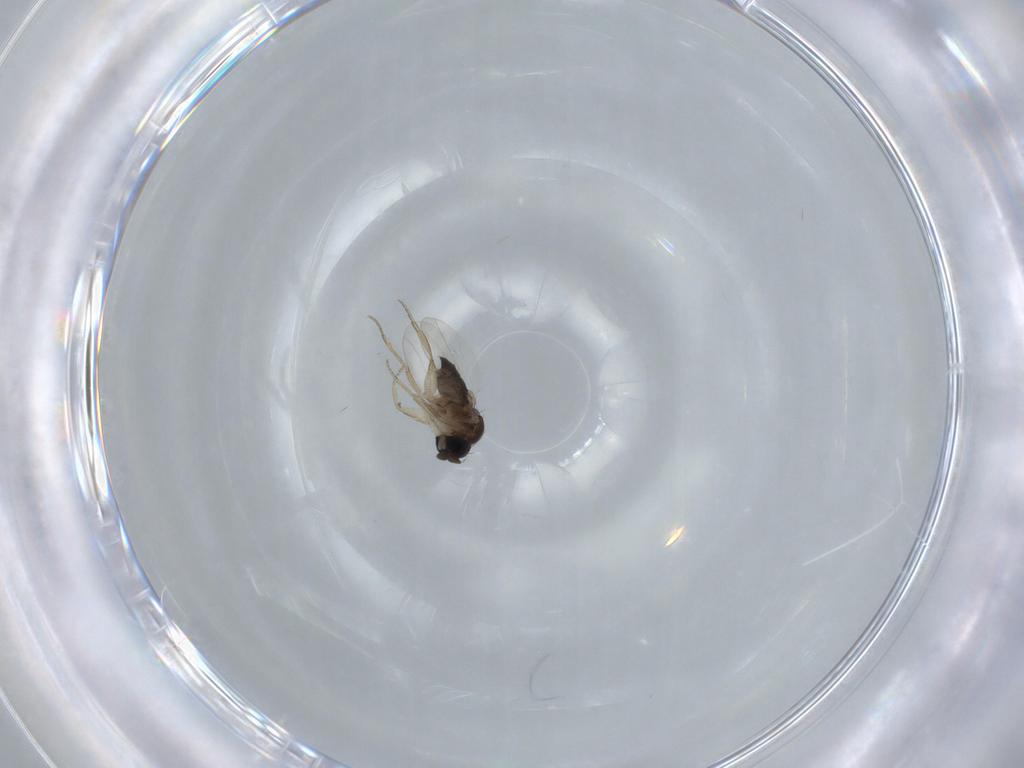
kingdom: Animalia
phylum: Arthropoda
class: Insecta
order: Diptera
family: Phoridae
